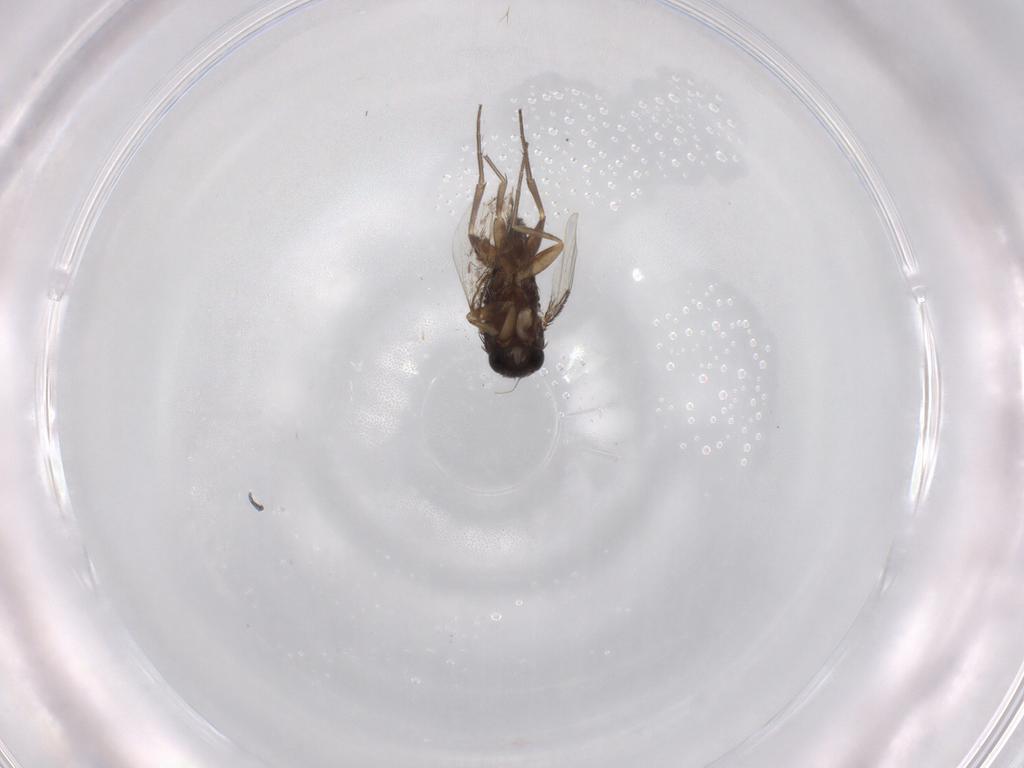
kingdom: Animalia
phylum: Arthropoda
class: Insecta
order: Diptera
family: Phoridae
